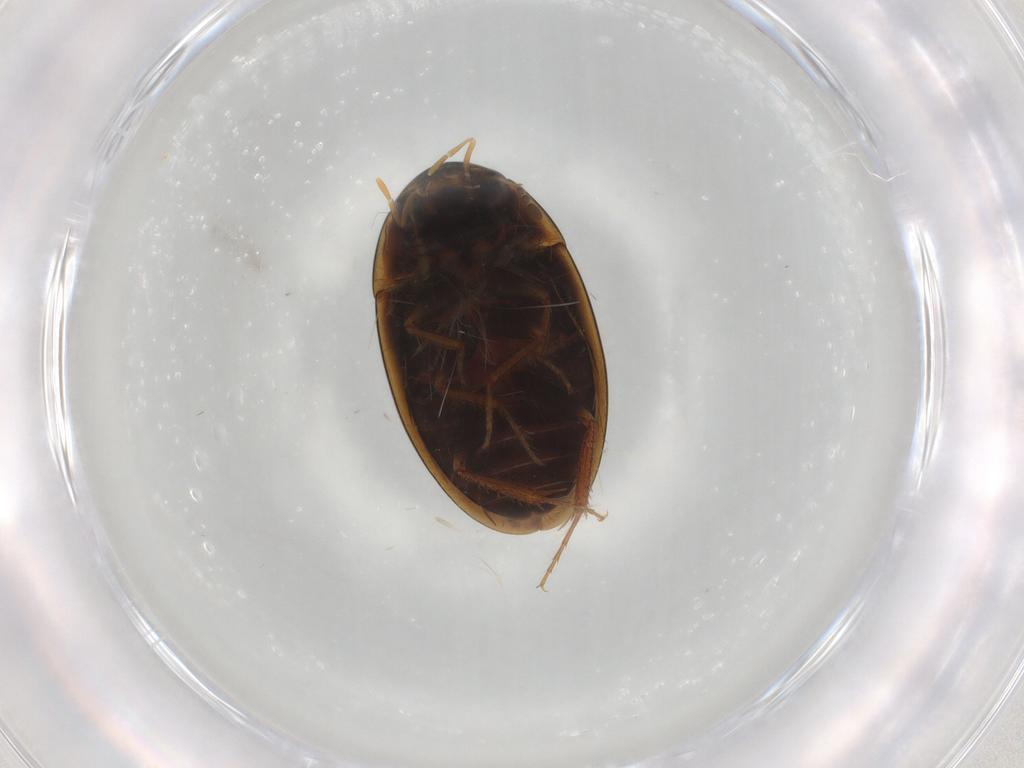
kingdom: Animalia
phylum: Arthropoda
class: Insecta
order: Coleoptera
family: Hydrophilidae
